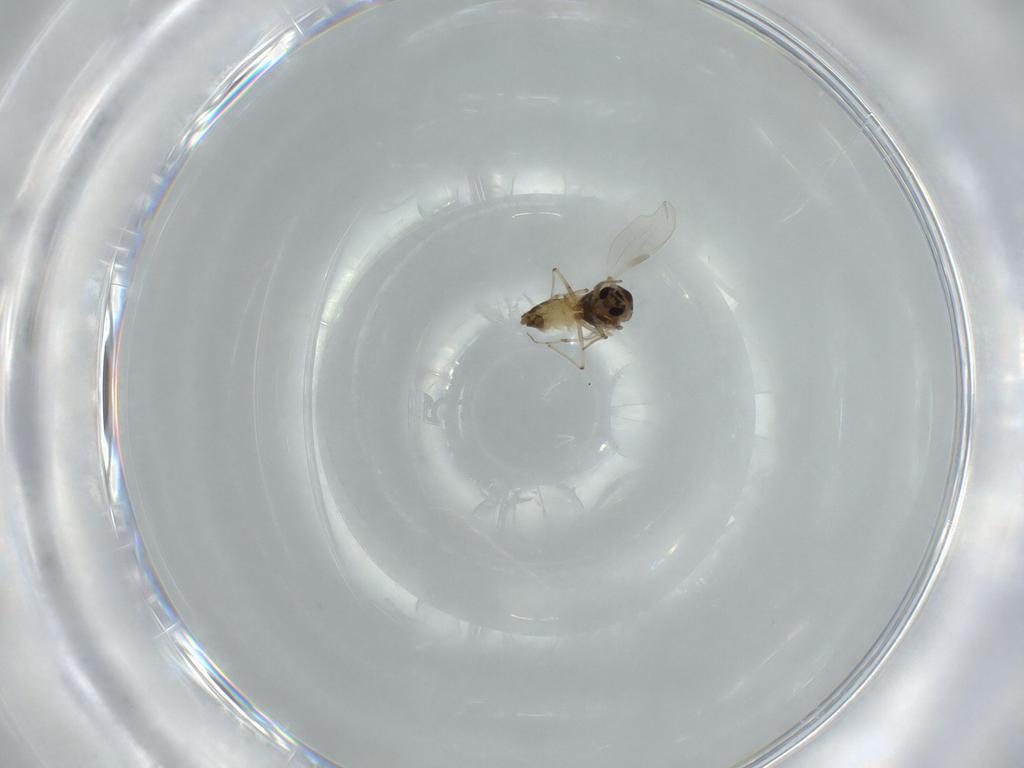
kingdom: Animalia
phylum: Arthropoda
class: Insecta
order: Diptera
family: Chironomidae
